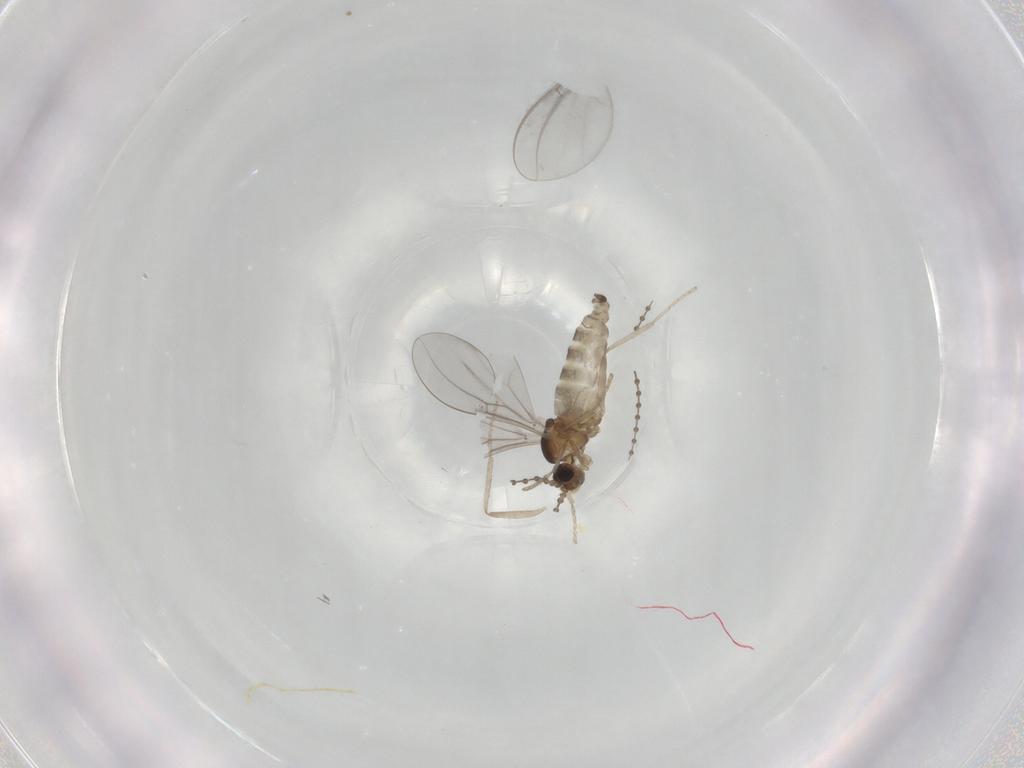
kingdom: Animalia
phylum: Arthropoda
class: Insecta
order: Diptera
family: Cecidomyiidae
